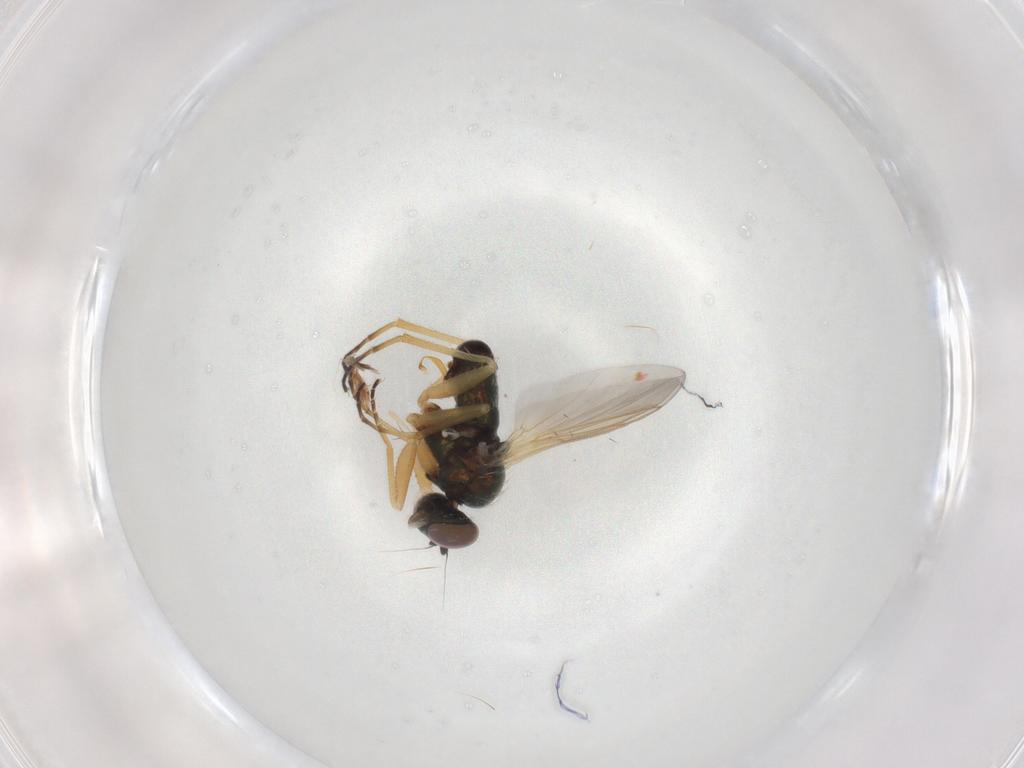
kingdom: Animalia
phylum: Arthropoda
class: Insecta
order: Diptera
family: Dolichopodidae
